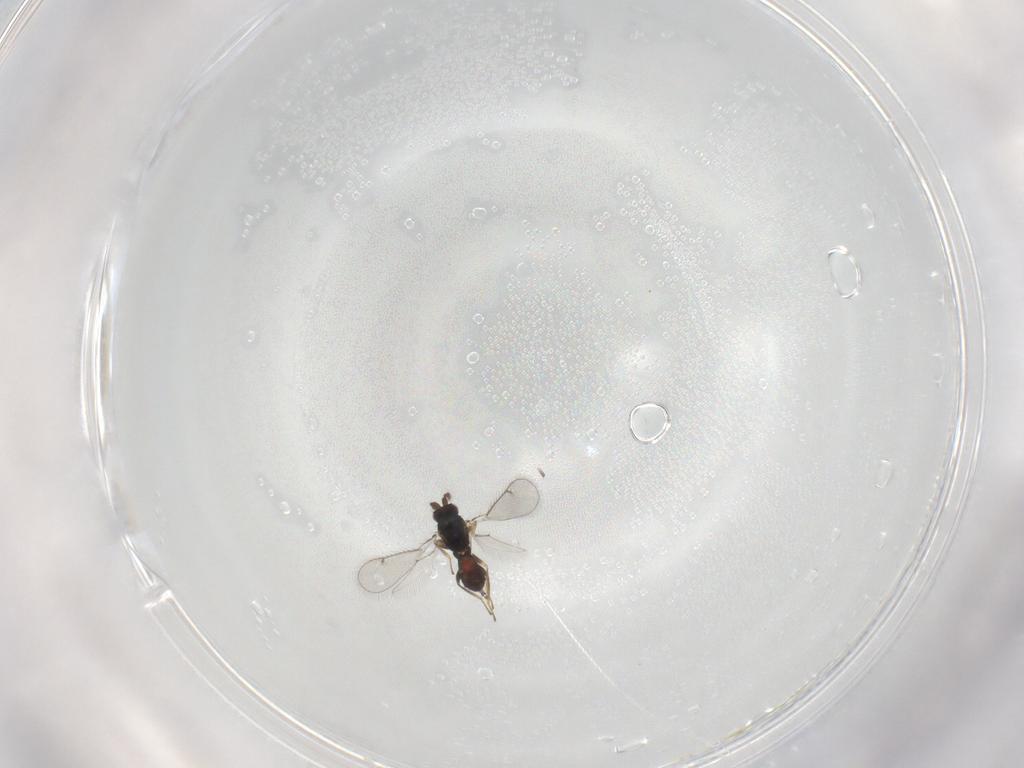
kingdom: Animalia
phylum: Arthropoda
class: Insecta
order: Hymenoptera
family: Eulophidae
